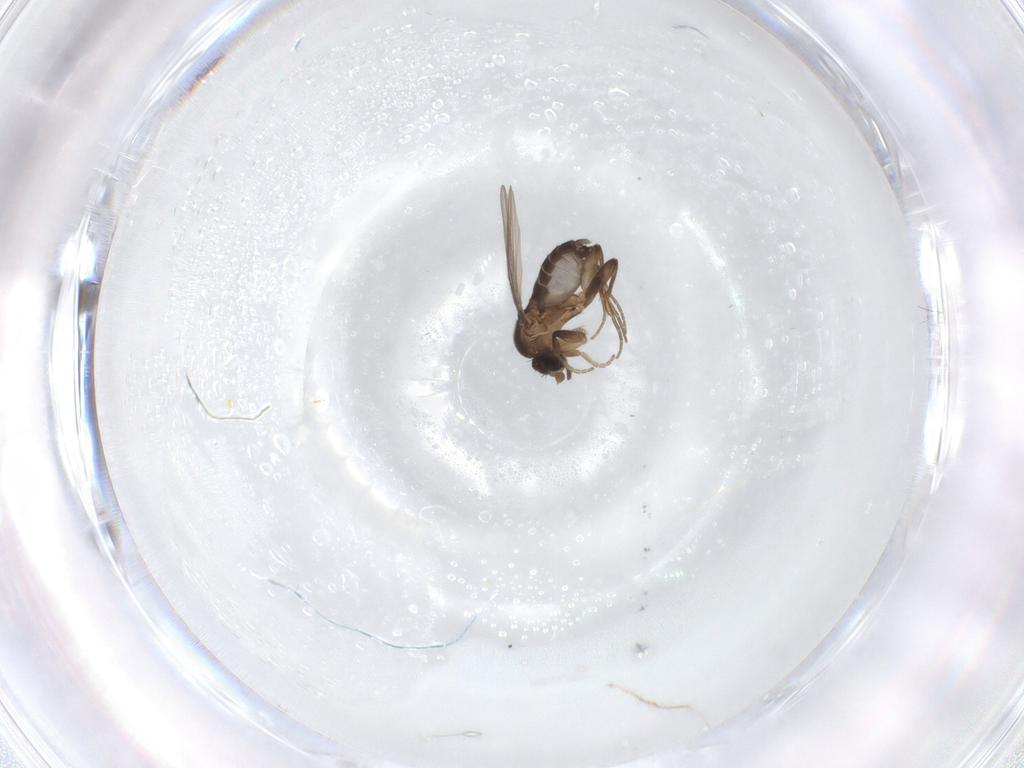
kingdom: Animalia
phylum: Arthropoda
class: Insecta
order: Diptera
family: Phoridae
